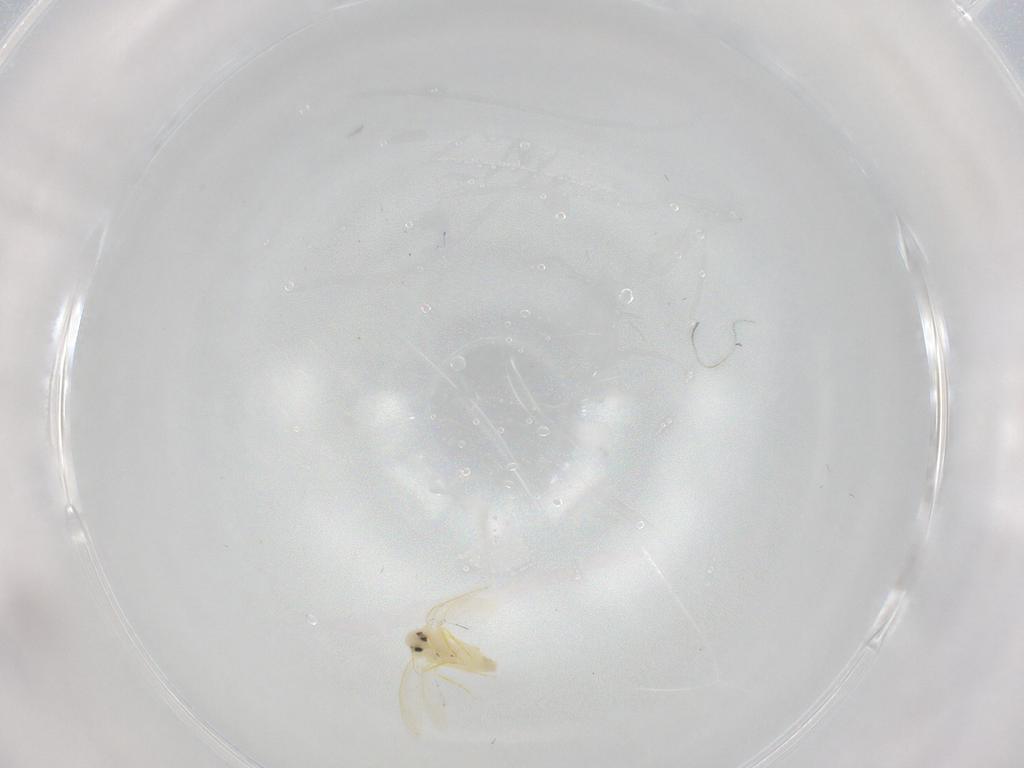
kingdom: Animalia
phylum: Arthropoda
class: Insecta
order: Hemiptera
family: Aleyrodidae
